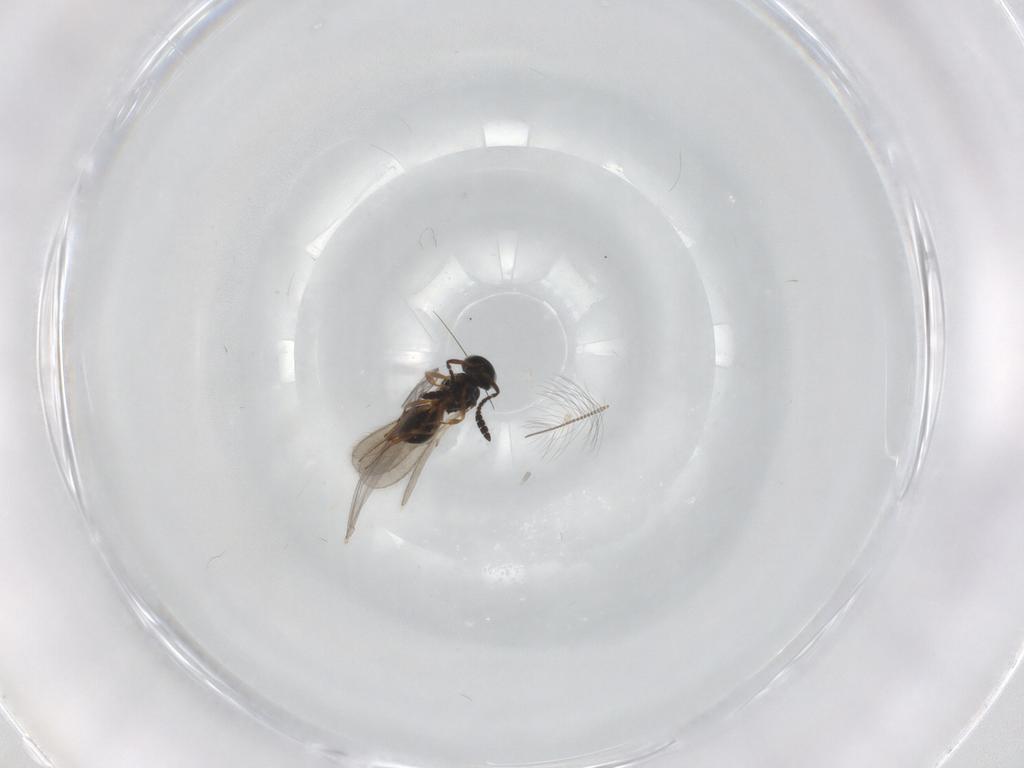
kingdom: Animalia
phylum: Arthropoda
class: Insecta
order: Hymenoptera
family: Scelionidae
